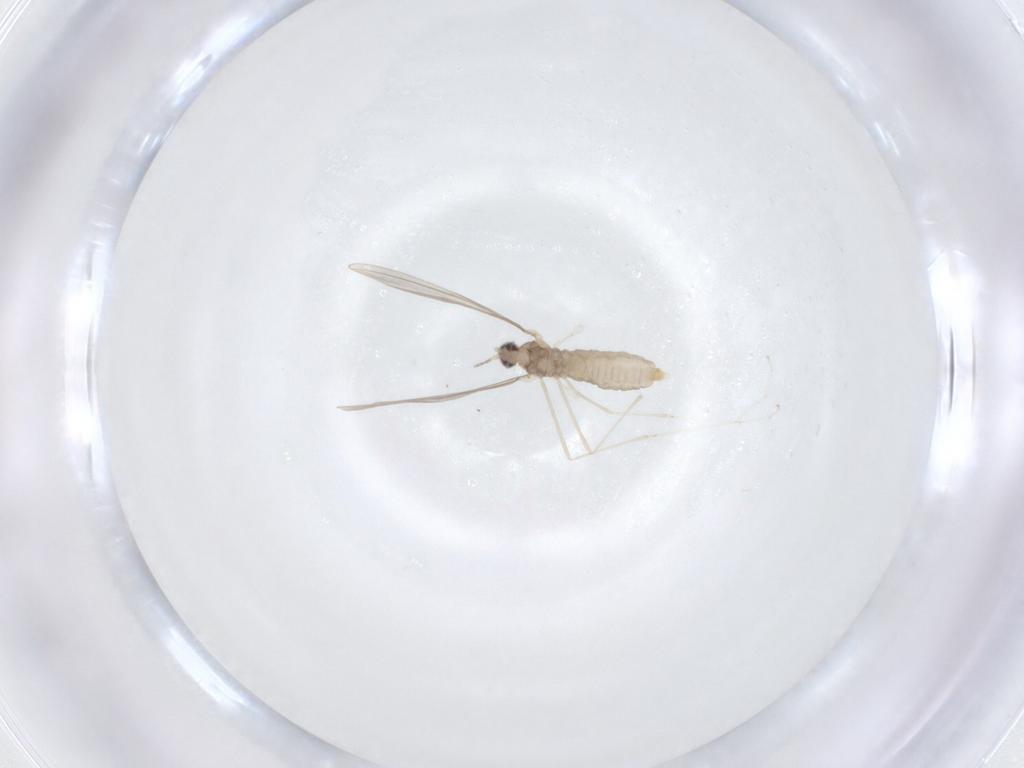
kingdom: Animalia
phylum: Arthropoda
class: Insecta
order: Diptera
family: Cecidomyiidae
